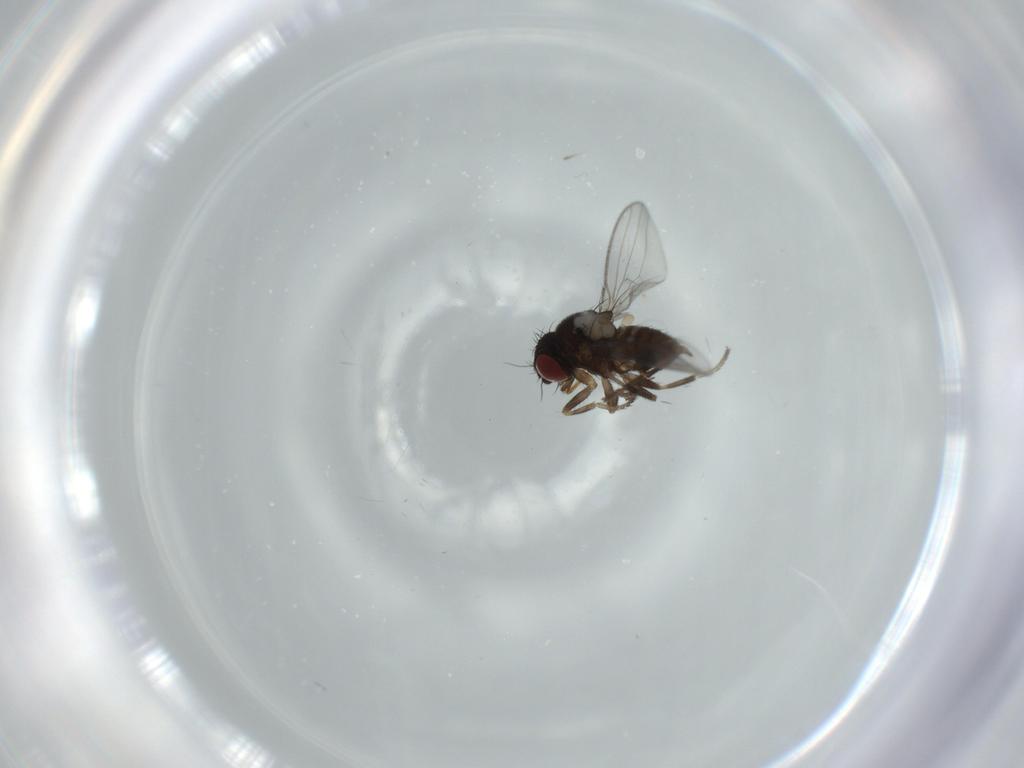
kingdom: Animalia
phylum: Arthropoda
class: Insecta
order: Diptera
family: Milichiidae
